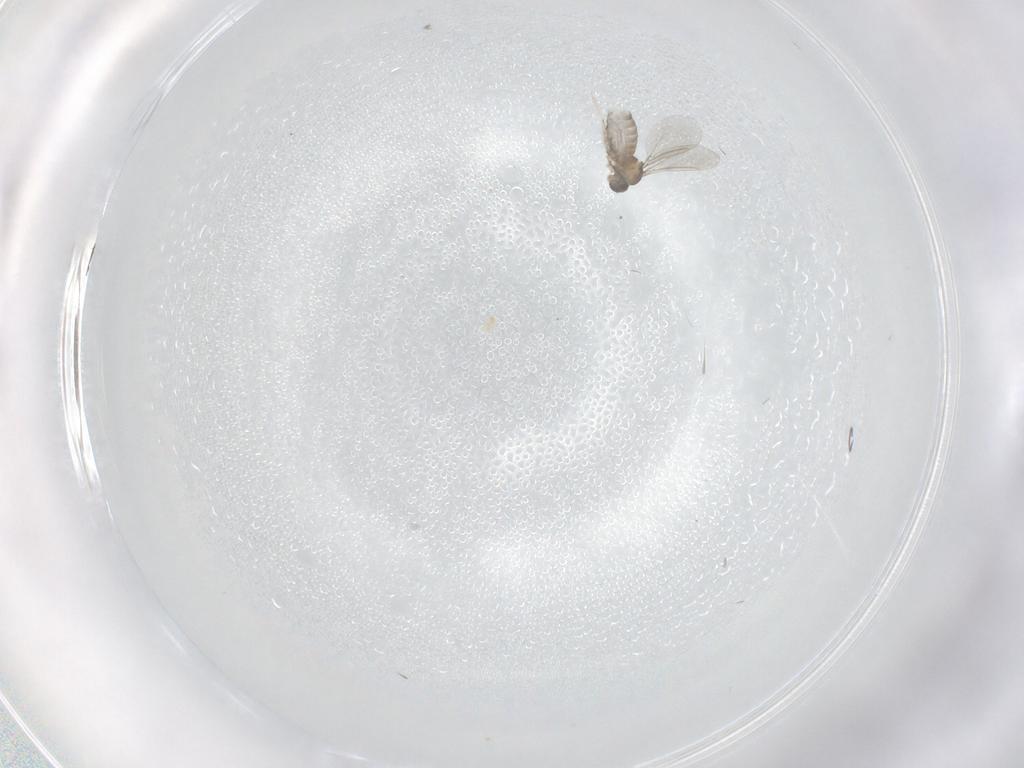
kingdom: Animalia
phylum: Arthropoda
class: Insecta
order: Diptera
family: Chironomidae
